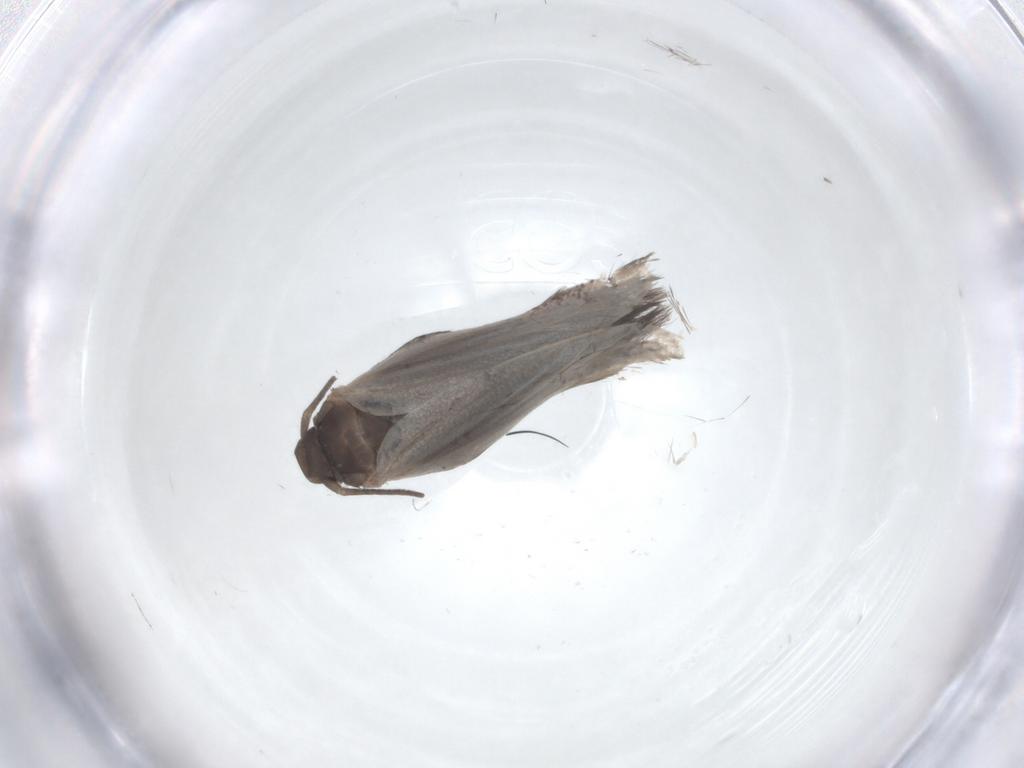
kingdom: Animalia
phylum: Arthropoda
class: Insecta
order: Lepidoptera
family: Elachistidae
